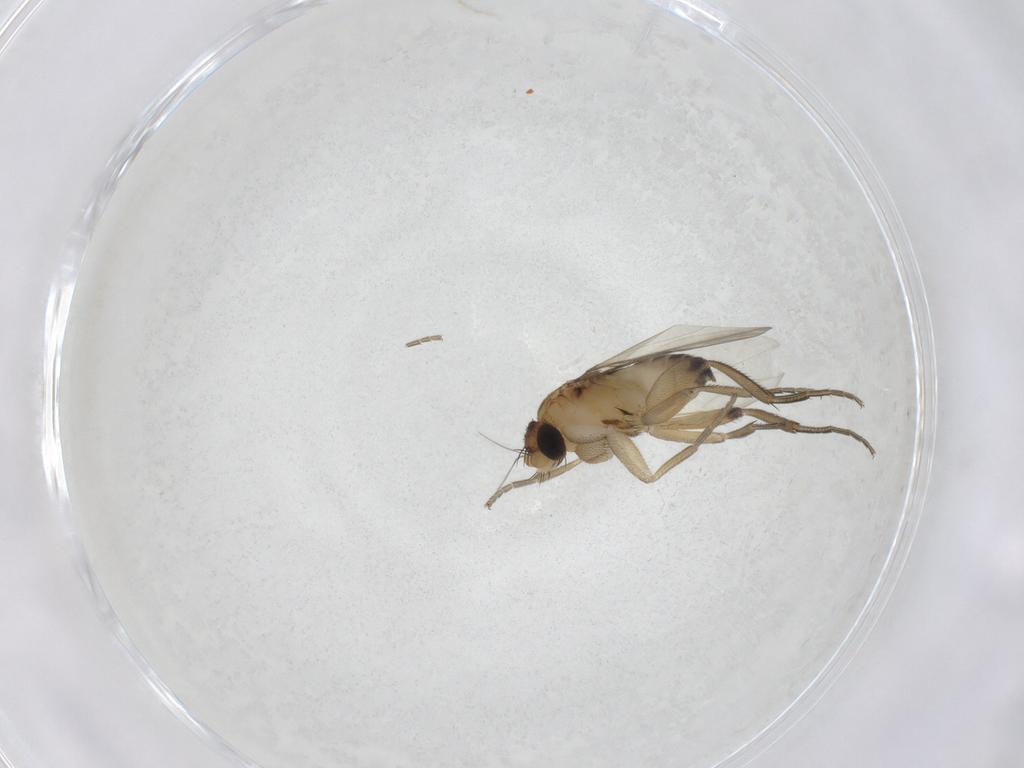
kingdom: Animalia
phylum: Arthropoda
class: Insecta
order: Diptera
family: Phoridae
